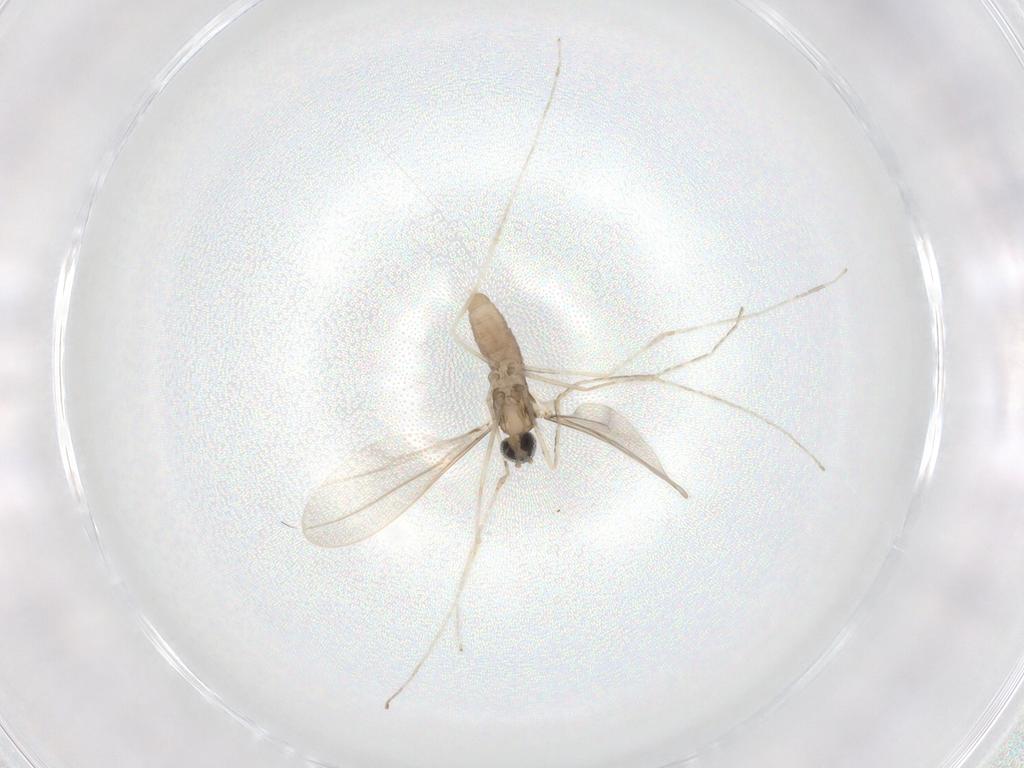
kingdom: Animalia
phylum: Arthropoda
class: Insecta
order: Diptera
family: Cecidomyiidae
